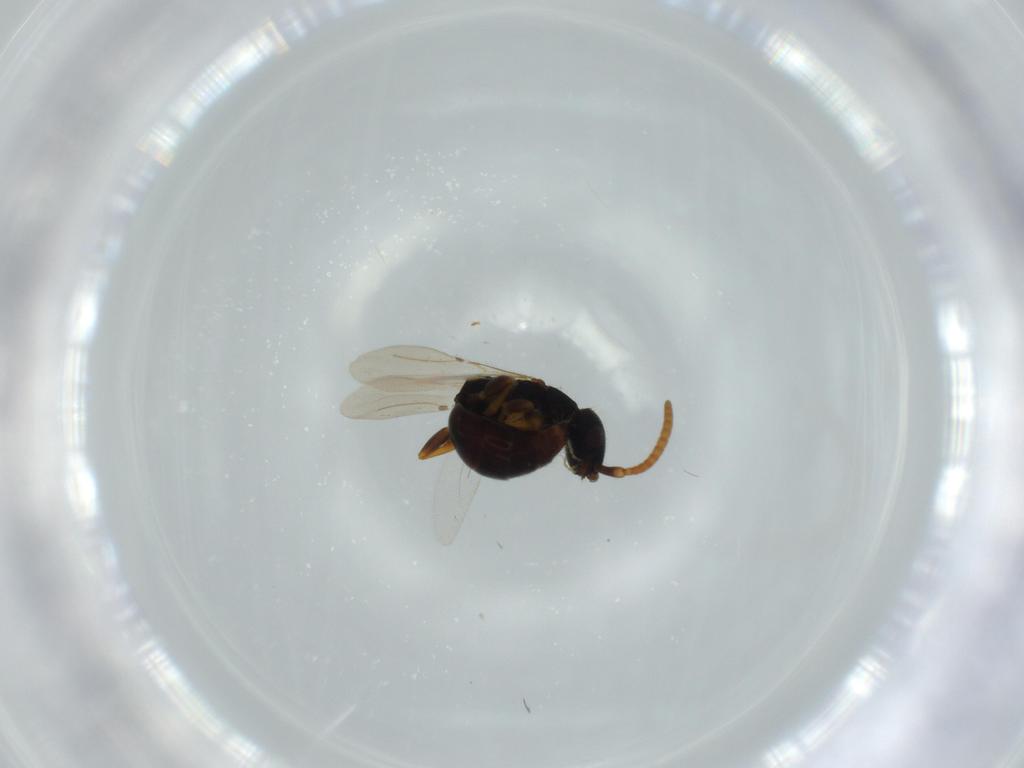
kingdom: Animalia
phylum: Arthropoda
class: Insecta
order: Hymenoptera
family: Bethylidae
